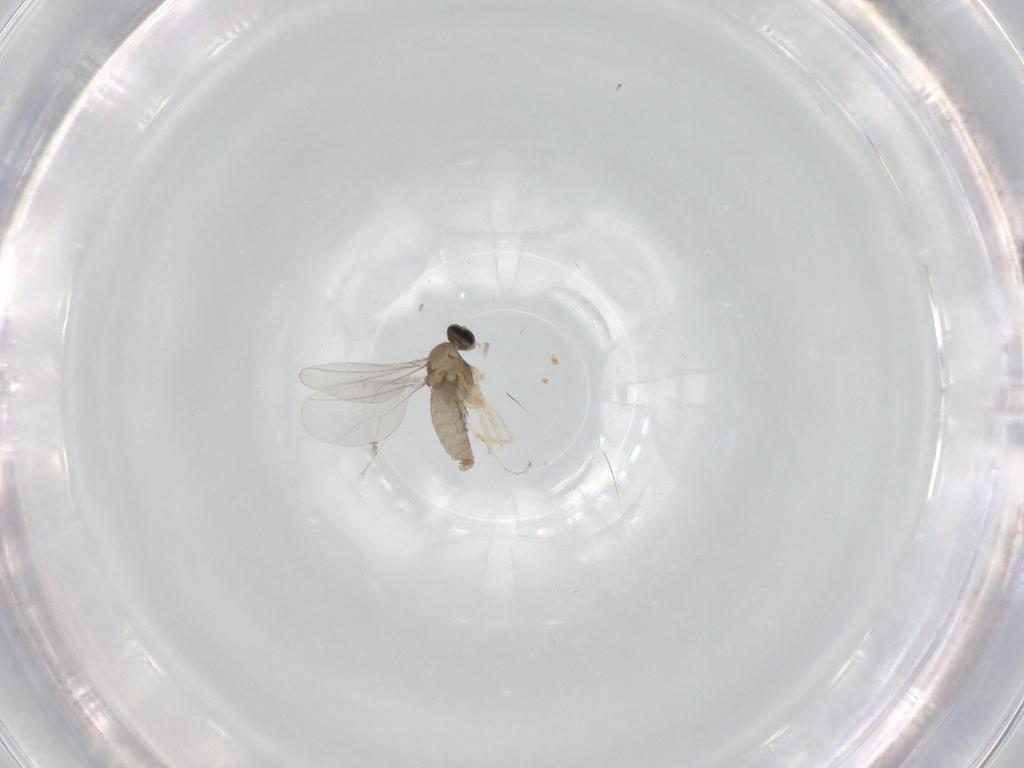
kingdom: Animalia
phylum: Arthropoda
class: Insecta
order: Diptera
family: Cecidomyiidae
